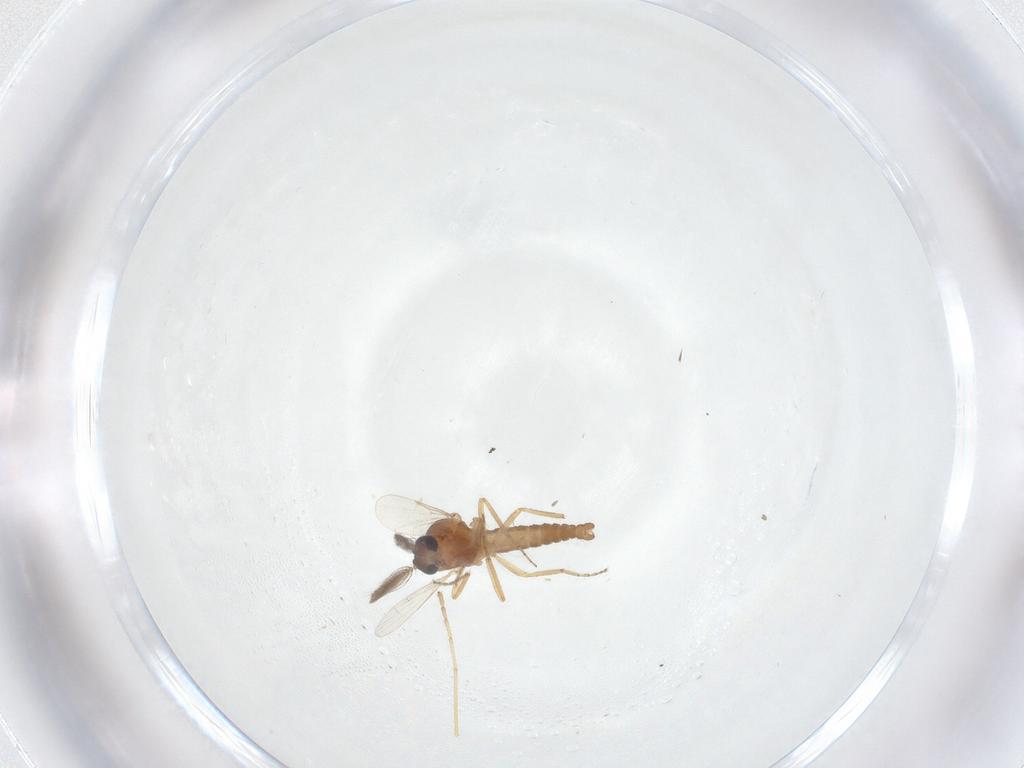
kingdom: Animalia
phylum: Arthropoda
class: Insecta
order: Diptera
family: Ceratopogonidae
